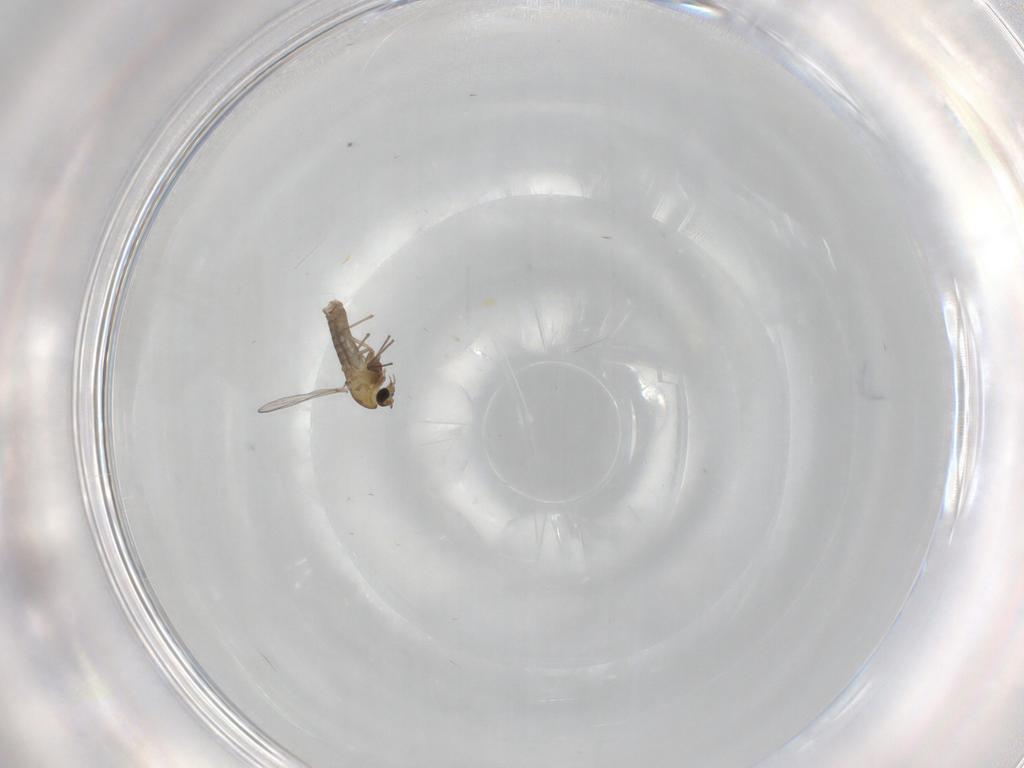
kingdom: Animalia
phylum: Arthropoda
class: Insecta
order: Diptera
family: Chironomidae
